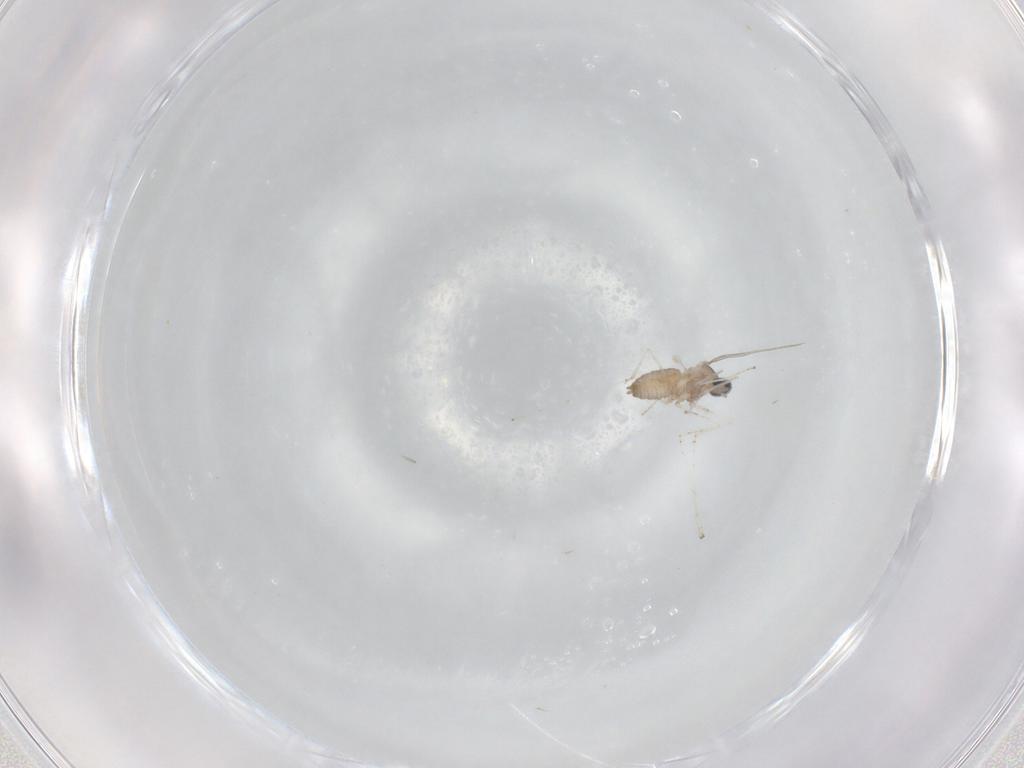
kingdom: Animalia
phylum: Arthropoda
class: Insecta
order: Diptera
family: Cecidomyiidae
